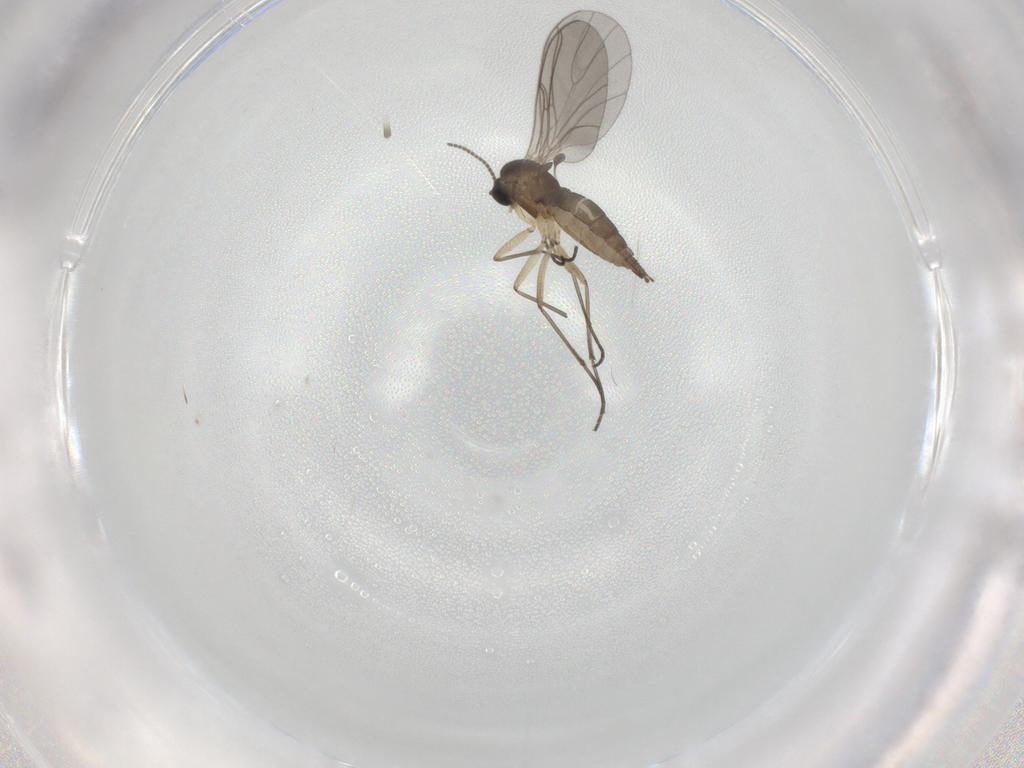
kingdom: Animalia
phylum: Arthropoda
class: Insecta
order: Diptera
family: Sciaridae
